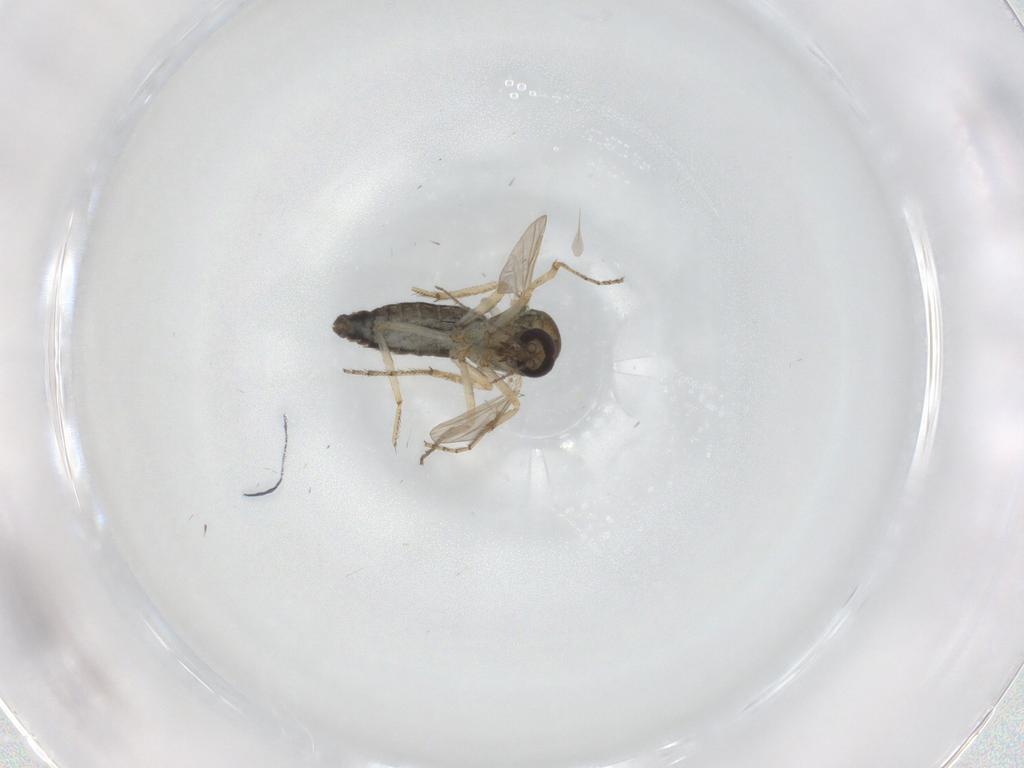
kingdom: Animalia
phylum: Arthropoda
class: Insecta
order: Diptera
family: Ceratopogonidae
